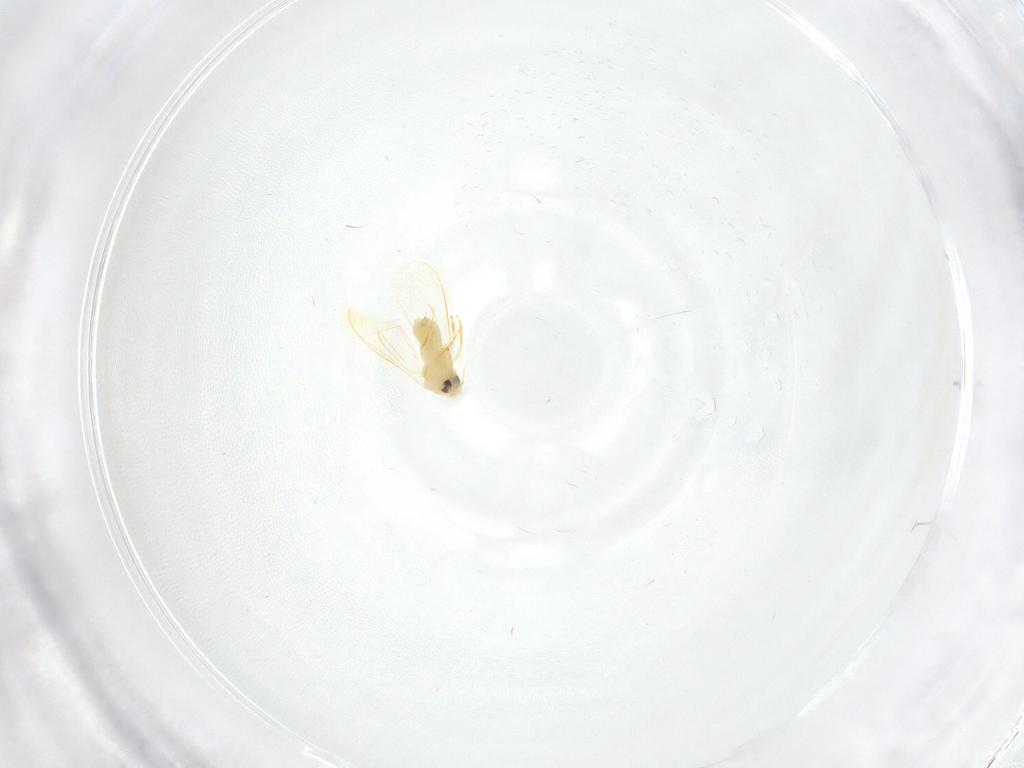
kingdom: Animalia
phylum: Arthropoda
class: Insecta
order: Hemiptera
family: Aleyrodidae
